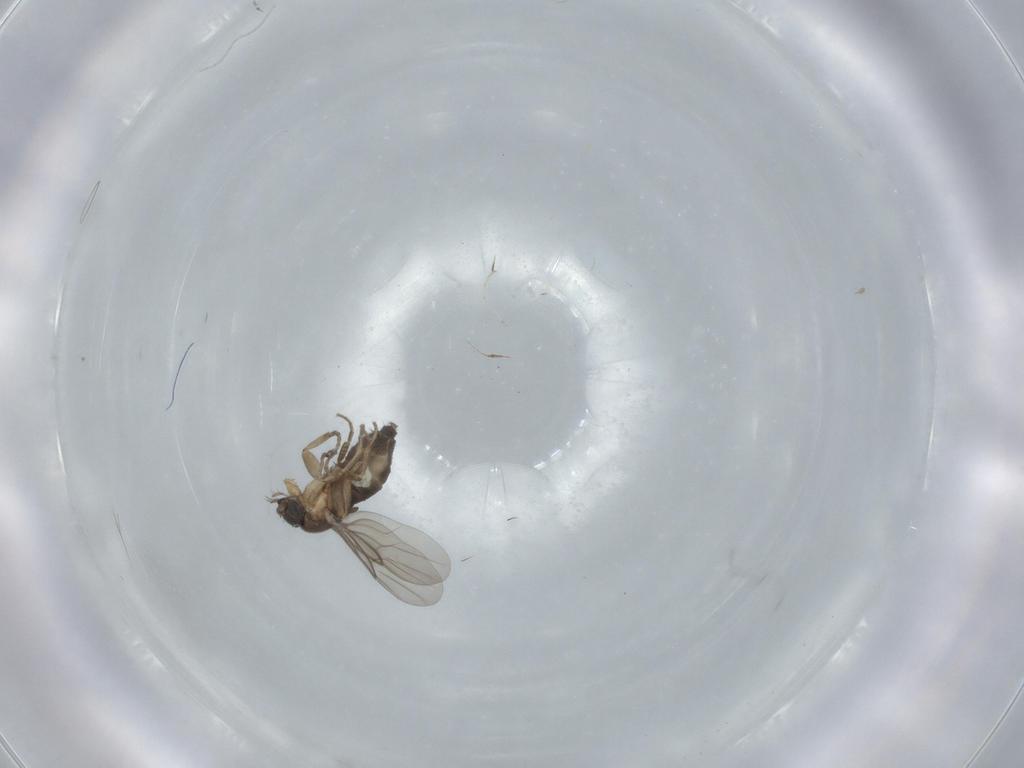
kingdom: Animalia
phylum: Arthropoda
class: Insecta
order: Diptera
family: Phoridae
